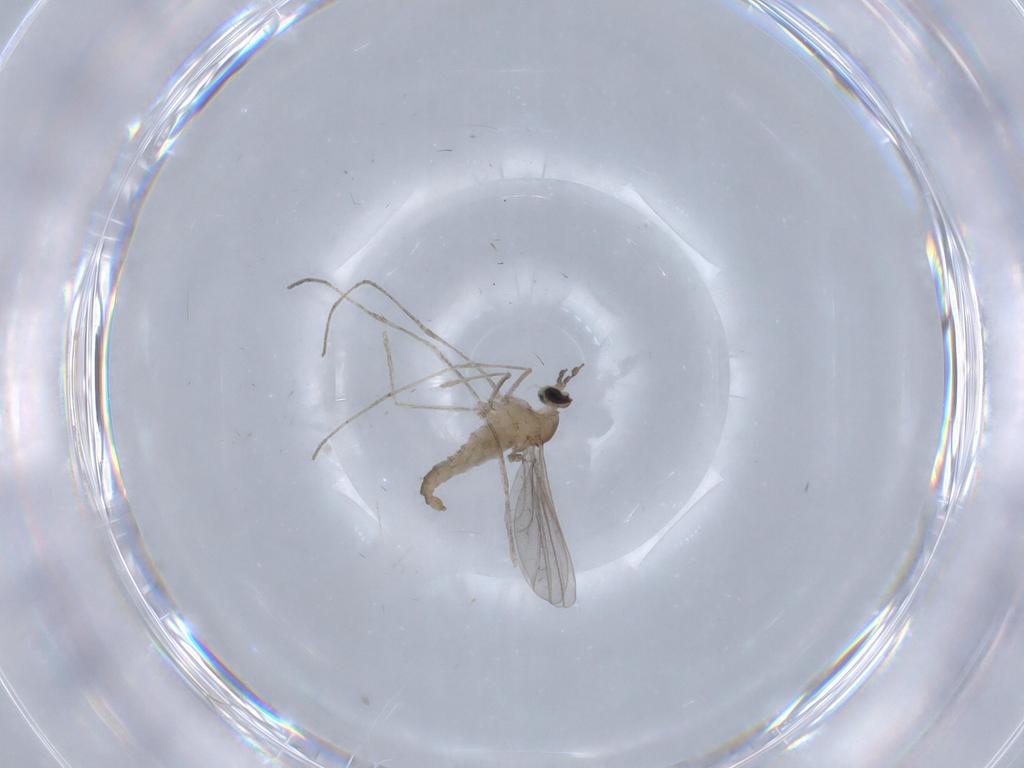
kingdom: Animalia
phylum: Arthropoda
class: Insecta
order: Diptera
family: Cecidomyiidae
